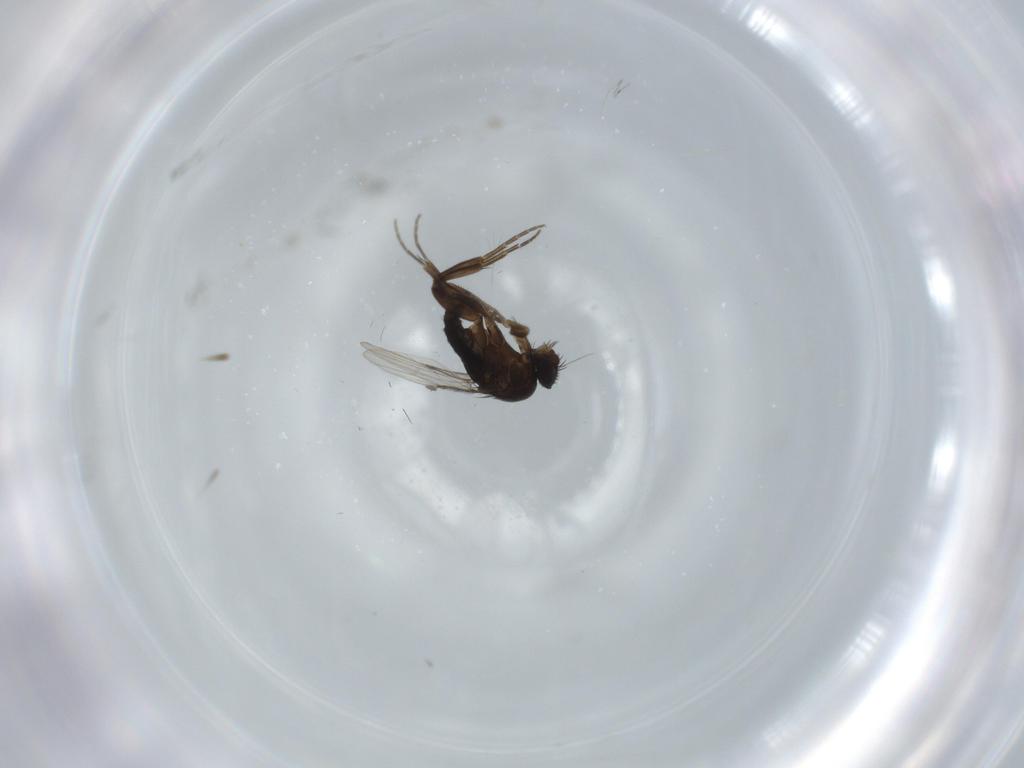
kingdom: Animalia
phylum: Arthropoda
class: Insecta
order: Diptera
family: Phoridae
